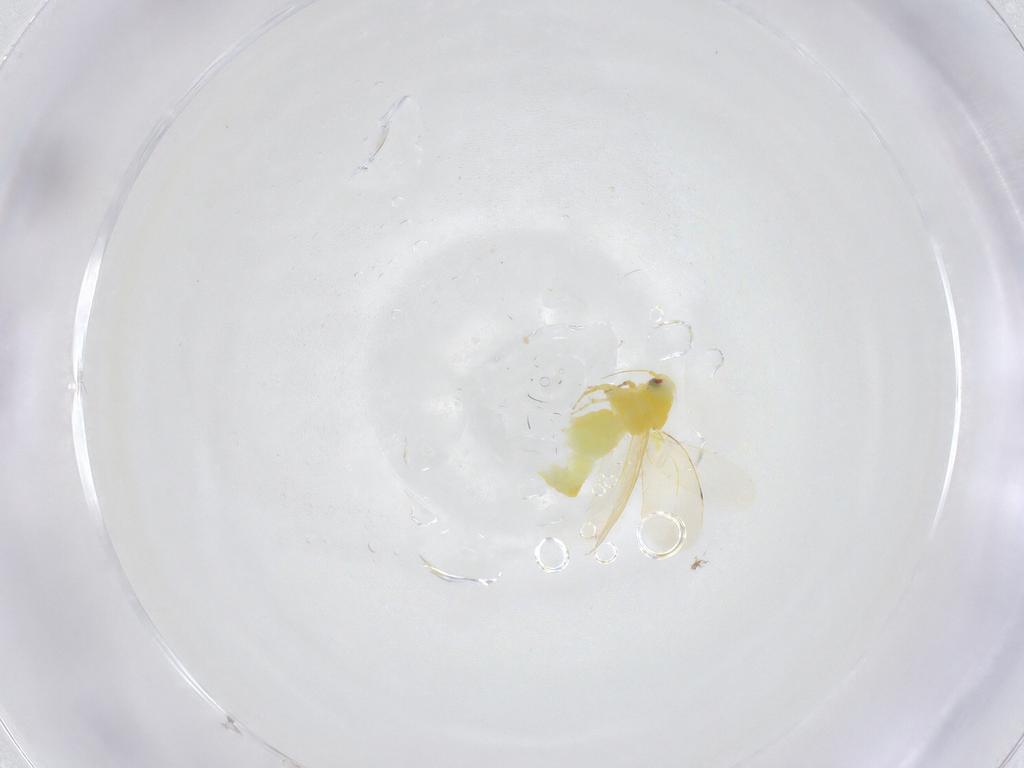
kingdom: Animalia
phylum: Arthropoda
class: Insecta
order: Hemiptera
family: Aleyrodidae
